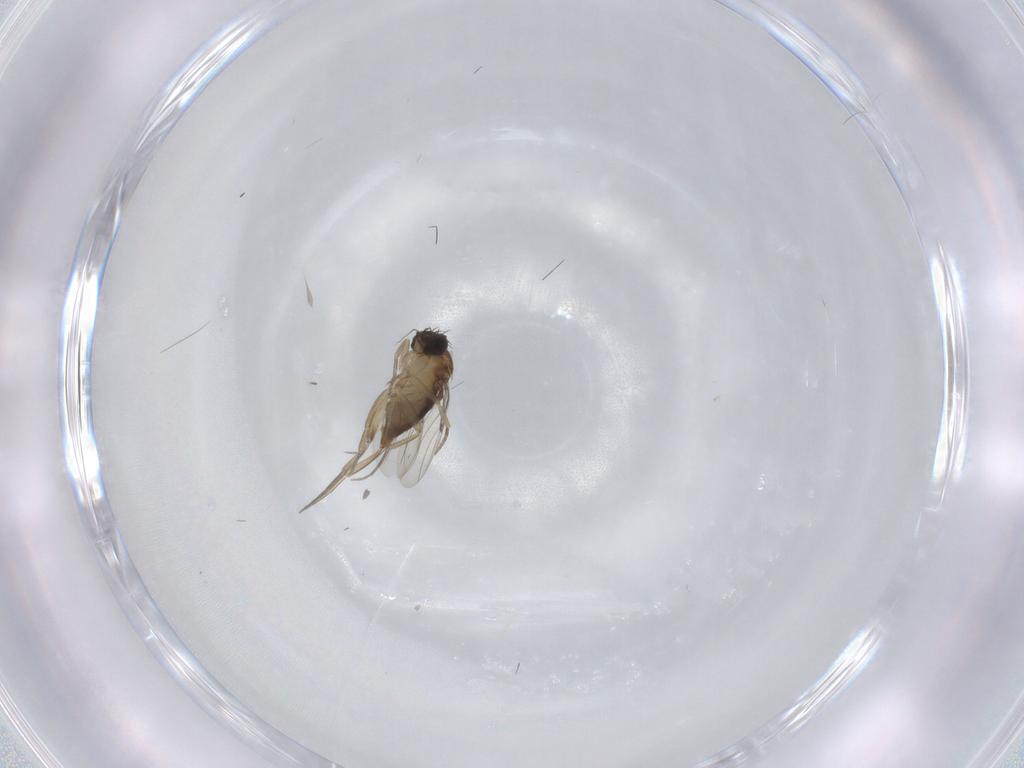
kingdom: Animalia
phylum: Arthropoda
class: Insecta
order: Diptera
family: Phoridae
